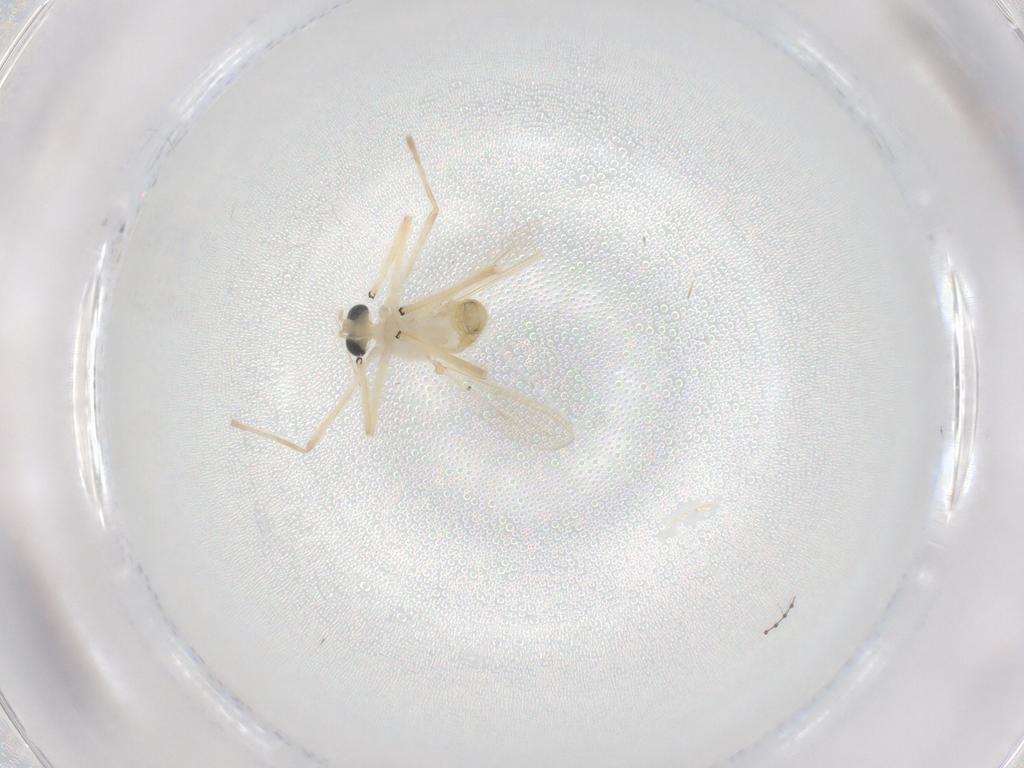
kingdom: Animalia
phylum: Arthropoda
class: Insecta
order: Diptera
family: Chironomidae
